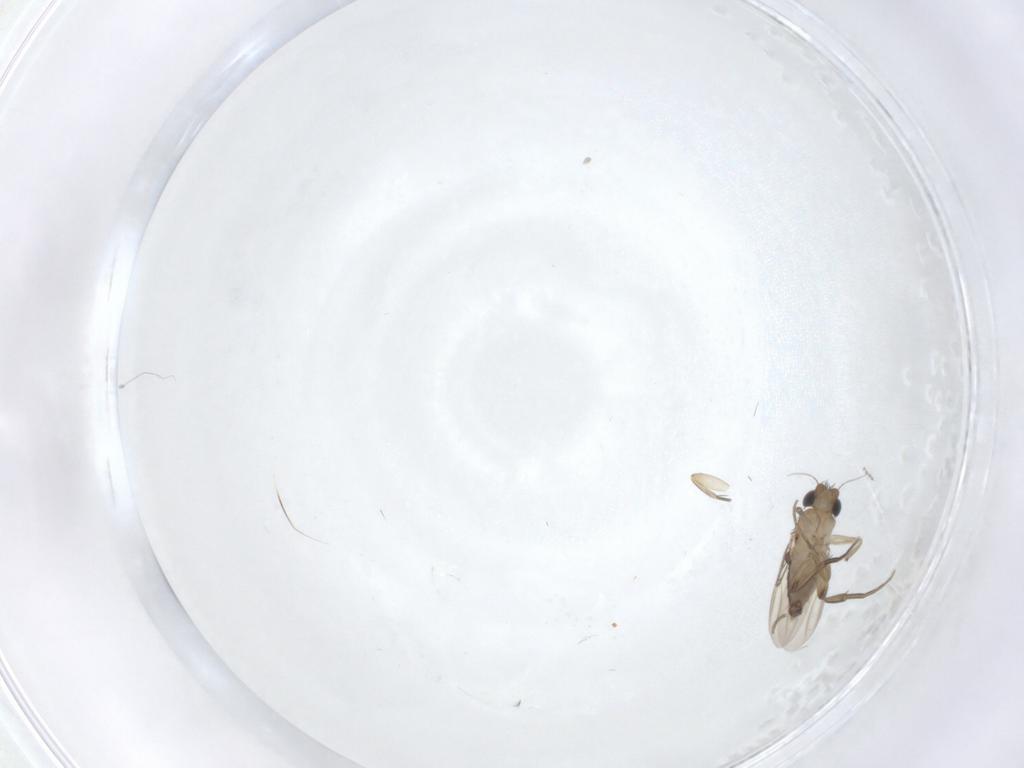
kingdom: Animalia
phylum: Arthropoda
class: Insecta
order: Diptera
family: Phoridae
